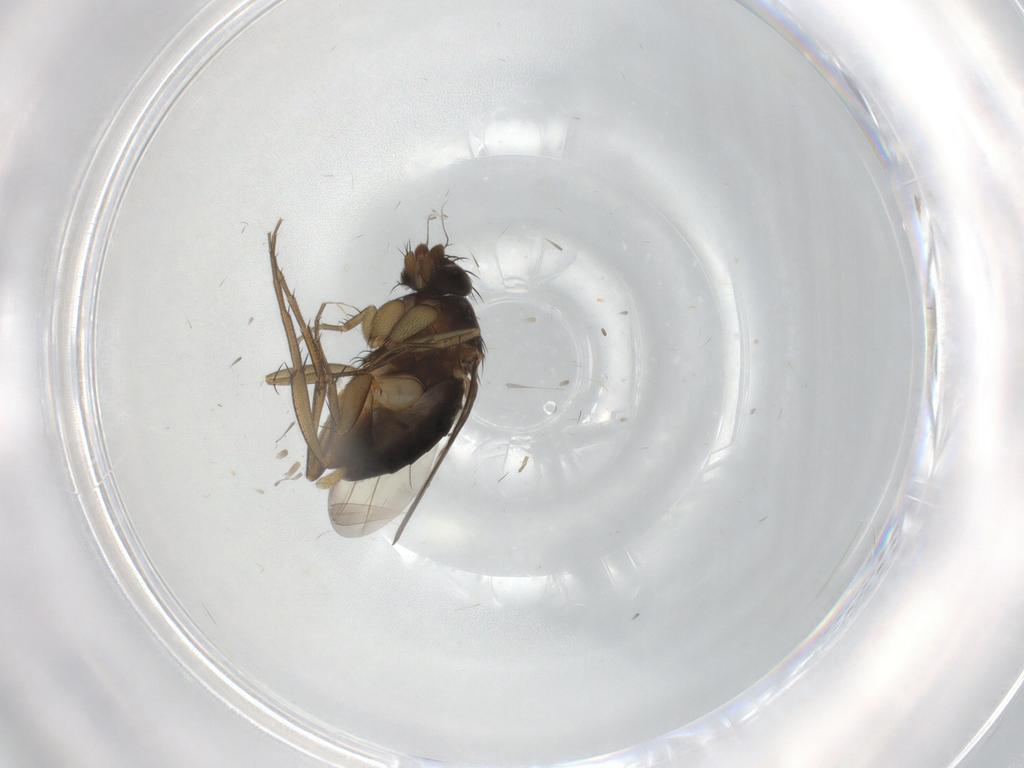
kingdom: Animalia
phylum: Arthropoda
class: Insecta
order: Diptera
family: Phoridae
